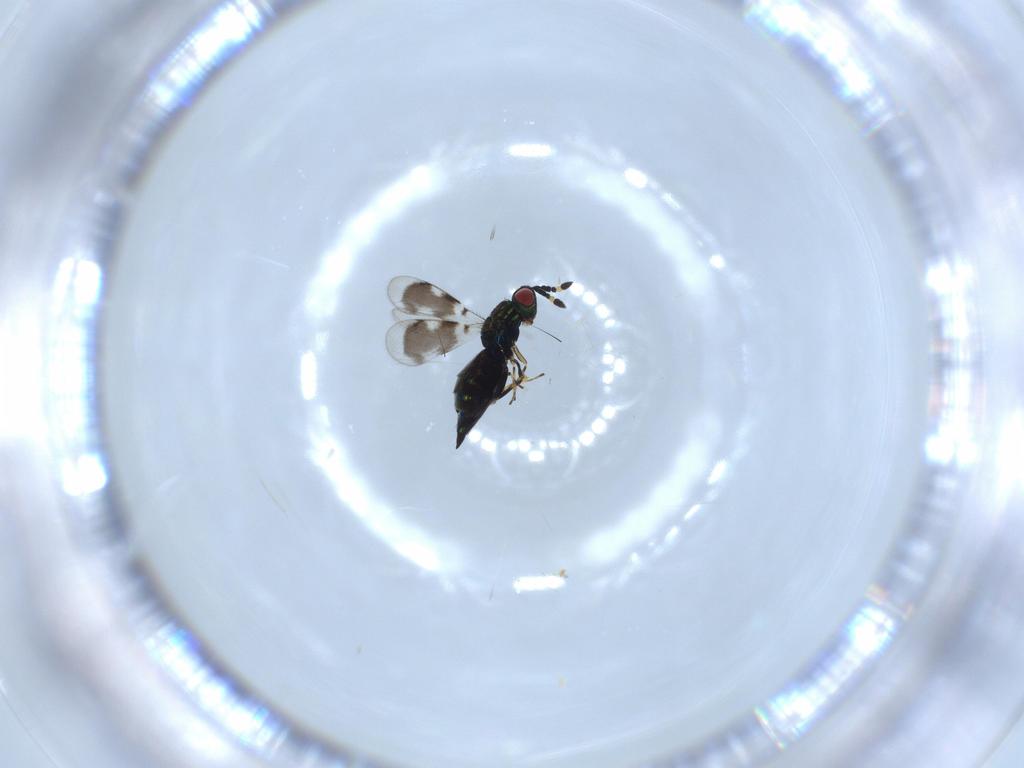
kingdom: Animalia
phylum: Arthropoda
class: Insecta
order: Hymenoptera
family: Eulophidae
